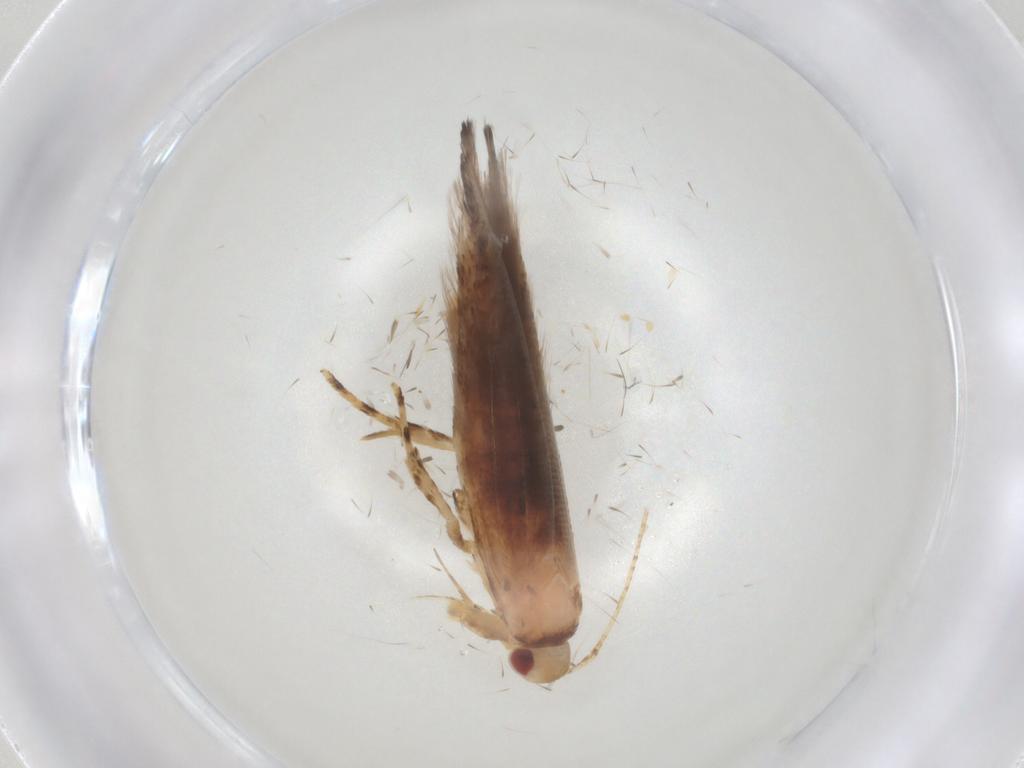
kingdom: Animalia
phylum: Arthropoda
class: Insecta
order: Lepidoptera
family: Cosmopterigidae
